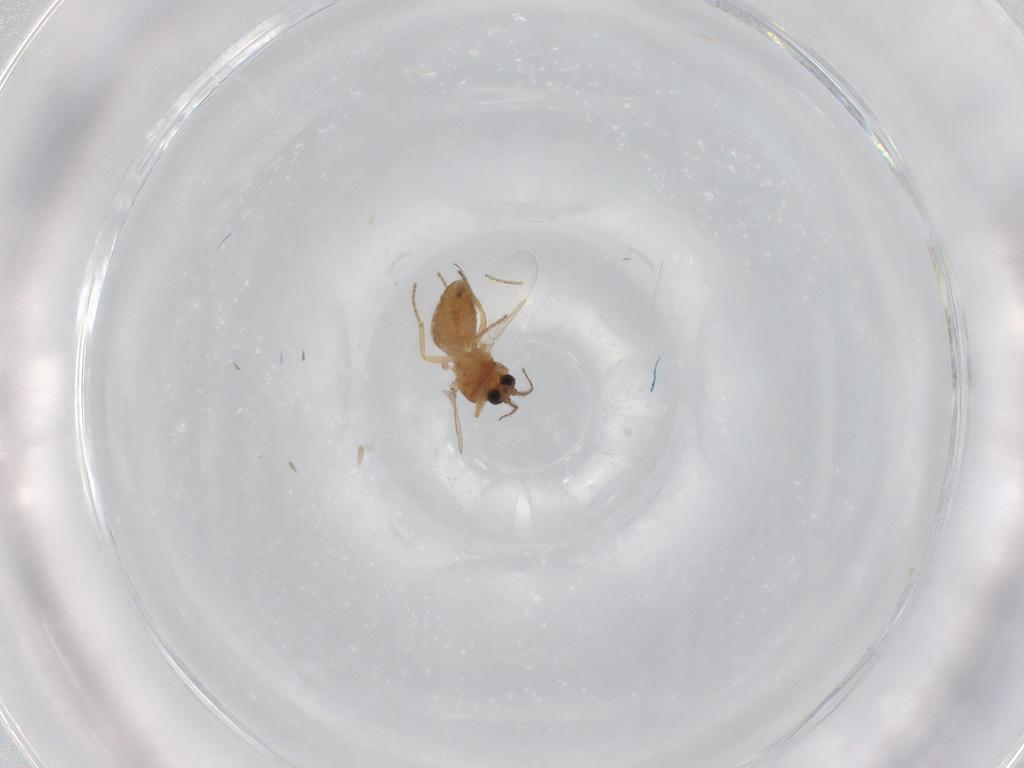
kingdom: Animalia
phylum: Arthropoda
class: Insecta
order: Diptera
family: Ceratopogonidae
